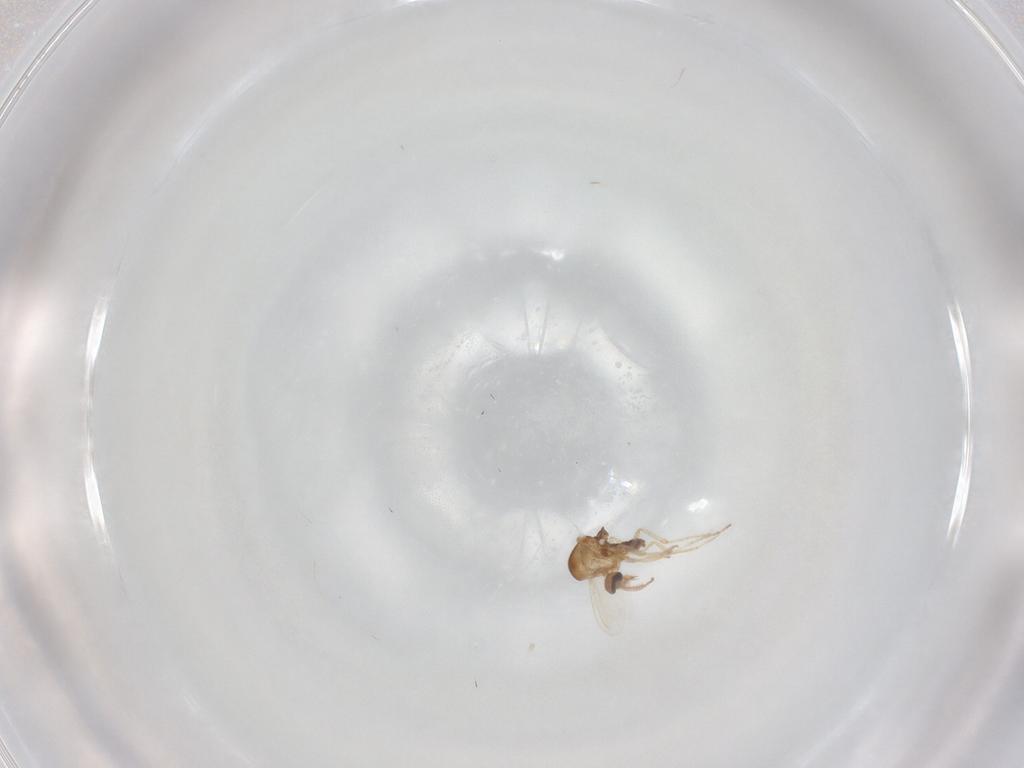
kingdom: Animalia
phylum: Arthropoda
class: Insecta
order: Diptera
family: Ceratopogonidae
